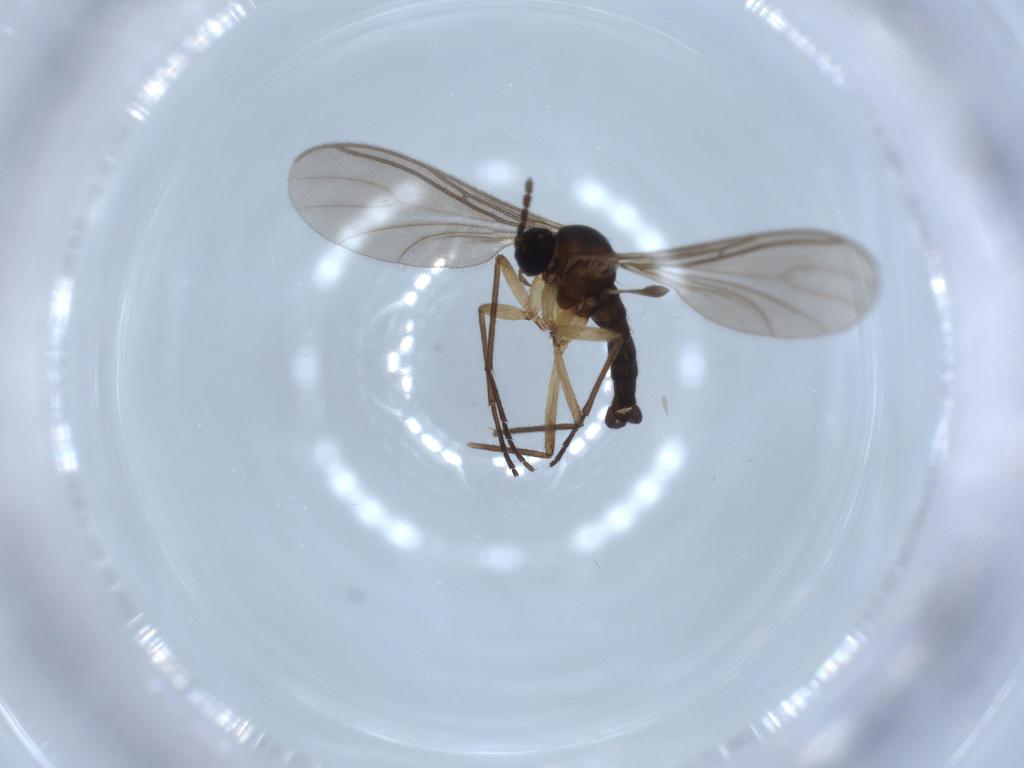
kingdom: Animalia
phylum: Arthropoda
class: Insecta
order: Diptera
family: Sciaridae
